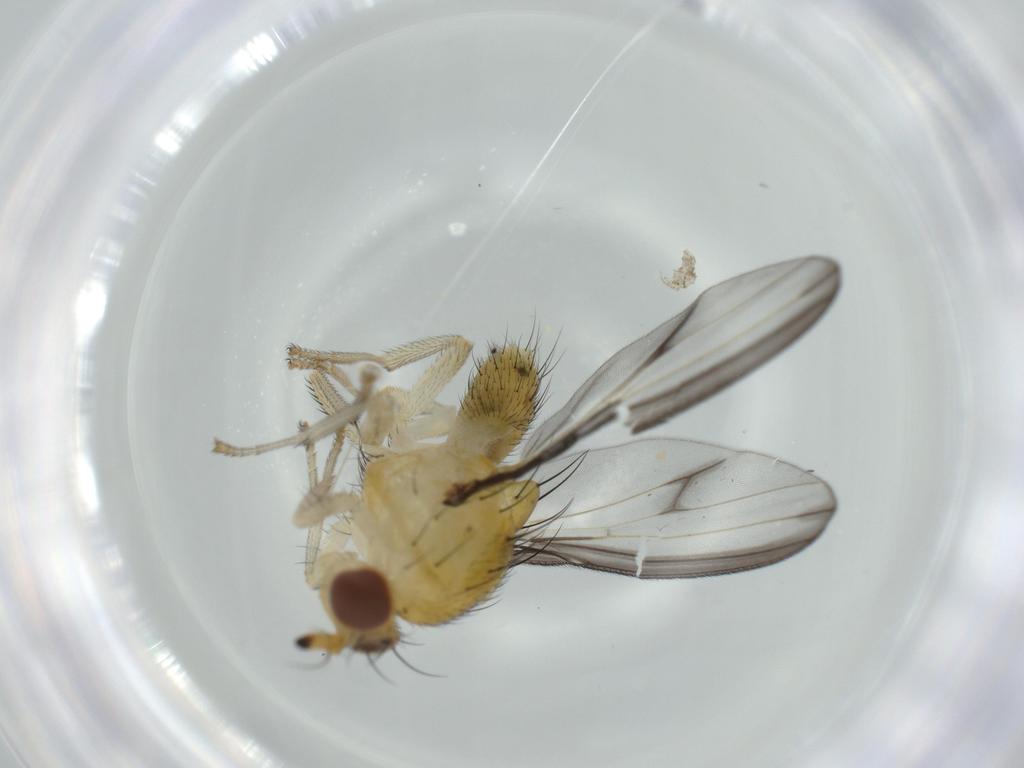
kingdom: Animalia
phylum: Arthropoda
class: Insecta
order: Diptera
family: Lauxaniidae
